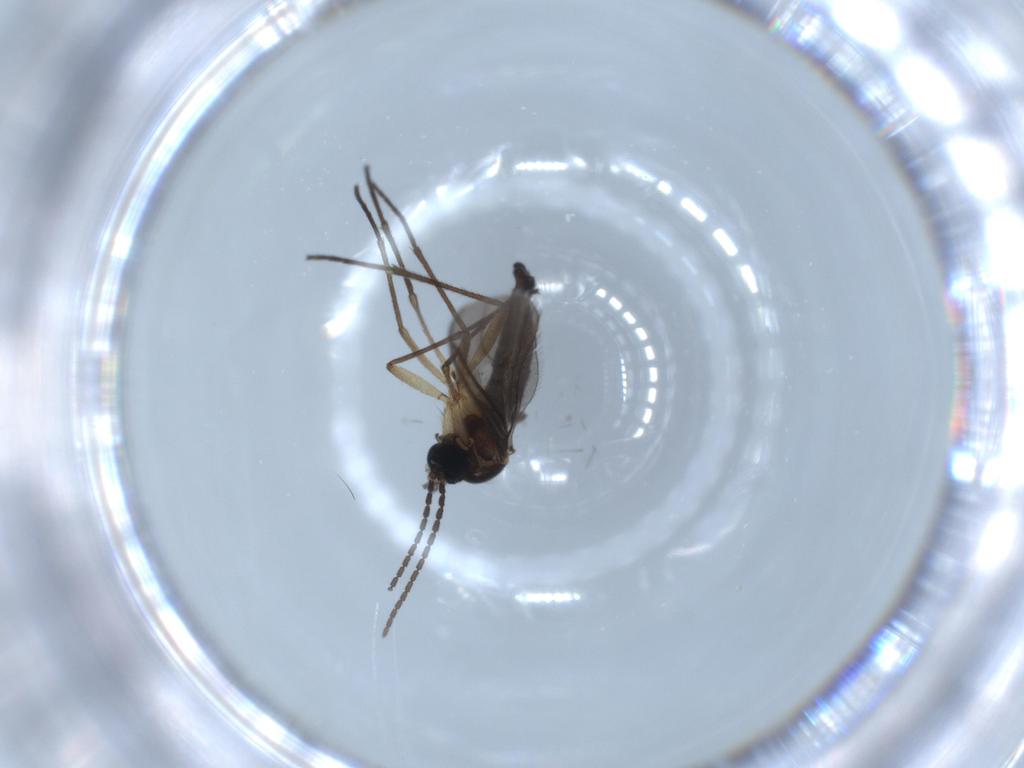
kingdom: Animalia
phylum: Arthropoda
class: Insecta
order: Diptera
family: Sciaridae
